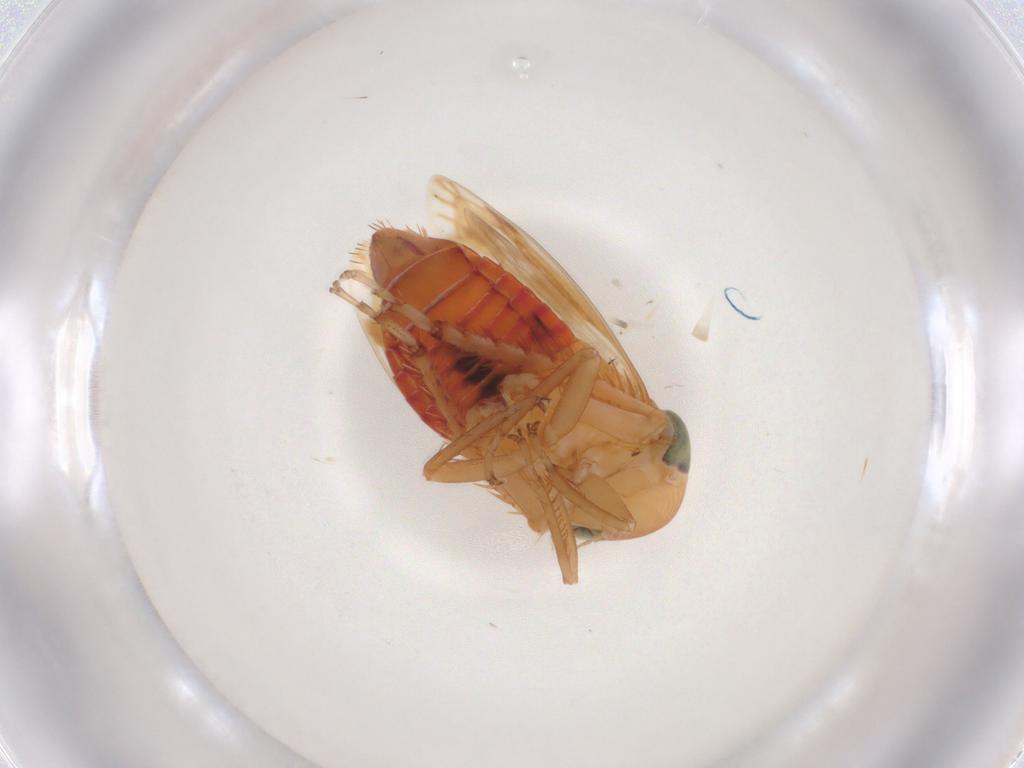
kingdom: Animalia
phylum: Arthropoda
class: Insecta
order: Hemiptera
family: Cicadellidae
